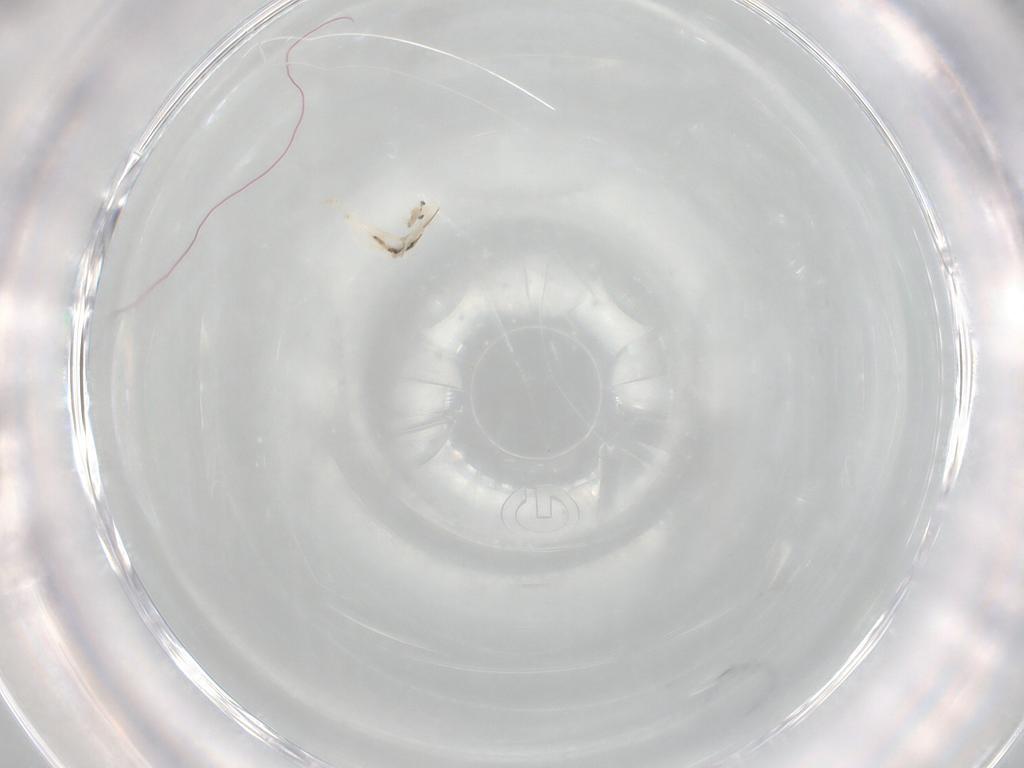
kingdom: Animalia
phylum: Arthropoda
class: Collembola
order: Entomobryomorpha
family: Entomobryidae
